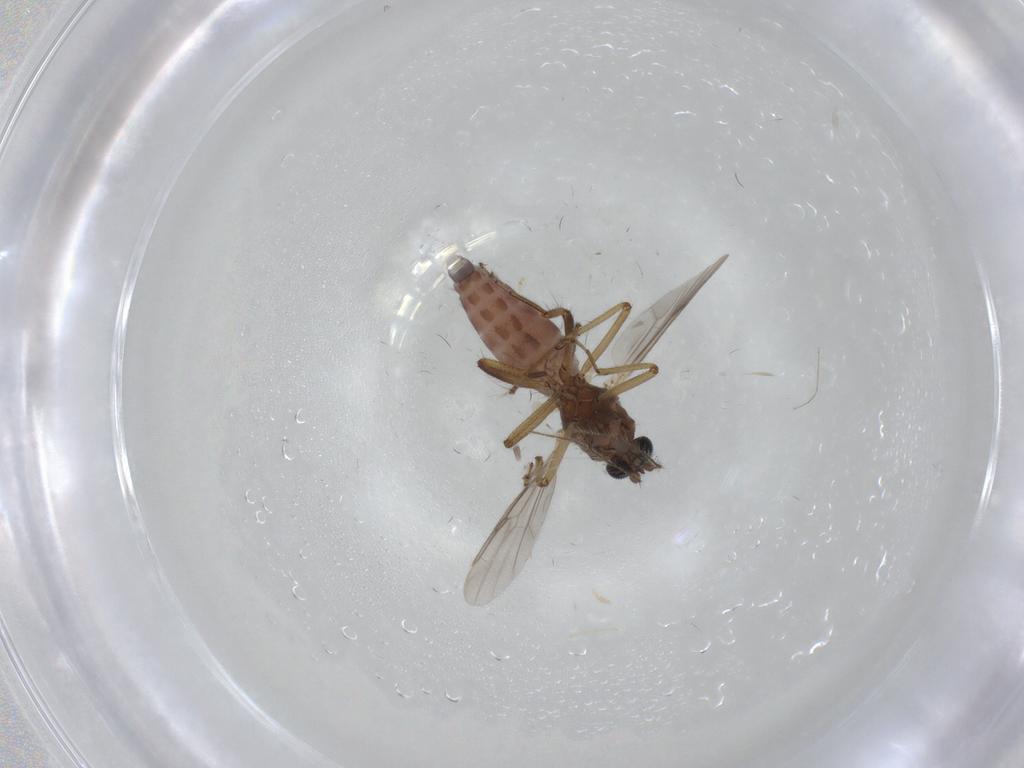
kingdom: Animalia
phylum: Arthropoda
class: Insecta
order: Diptera
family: Ceratopogonidae
